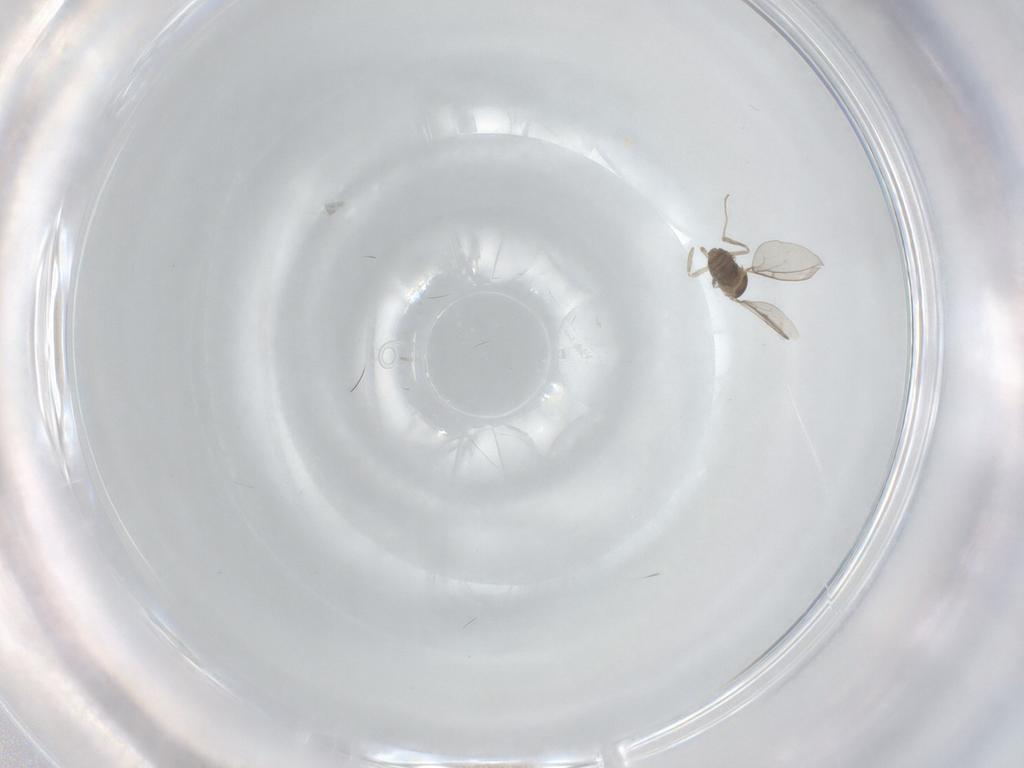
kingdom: Animalia
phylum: Arthropoda
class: Insecta
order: Diptera
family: Cecidomyiidae
